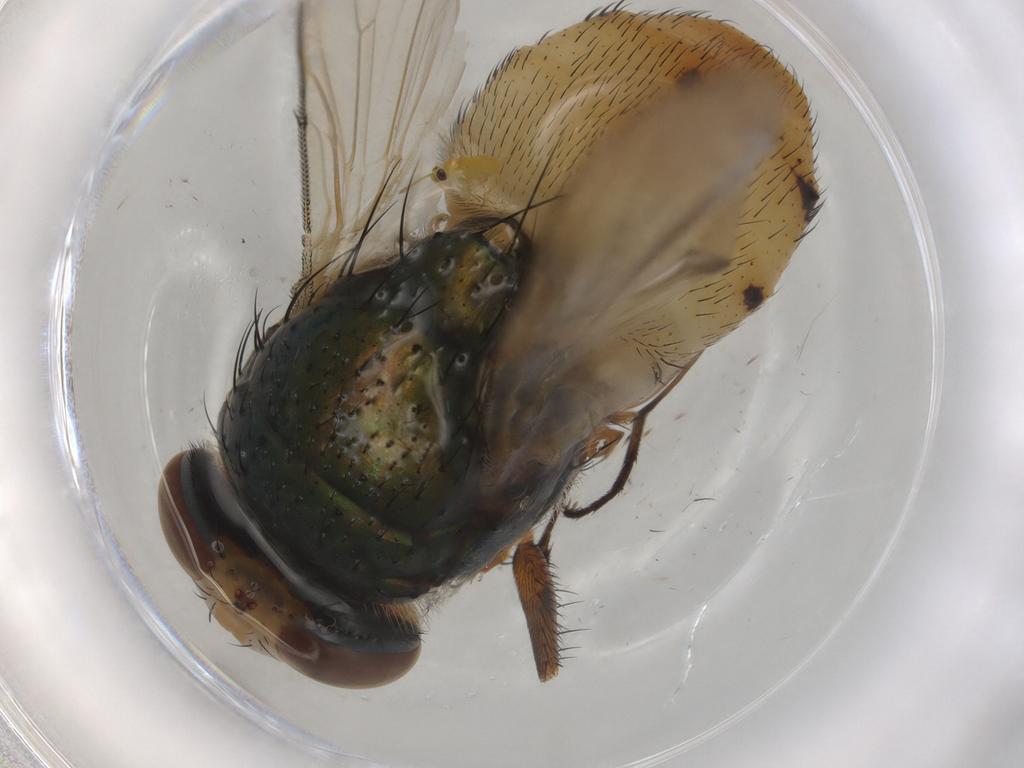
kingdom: Animalia
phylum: Arthropoda
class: Insecta
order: Diptera
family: Calliphoridae
